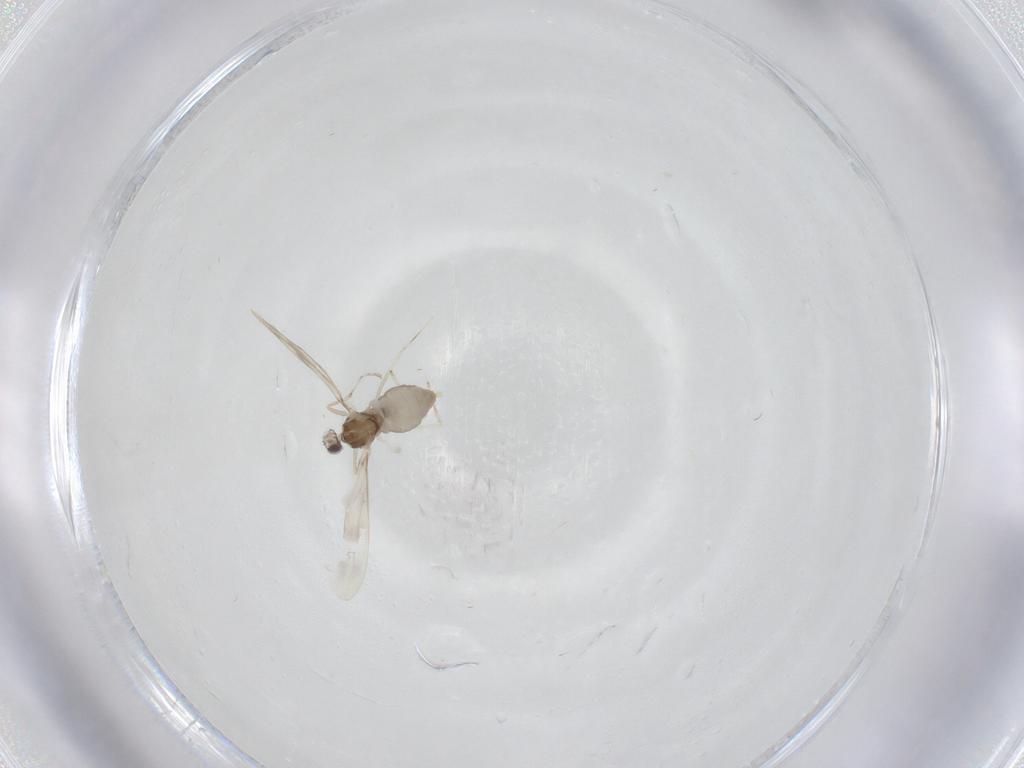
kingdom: Animalia
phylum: Arthropoda
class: Insecta
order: Diptera
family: Cecidomyiidae
